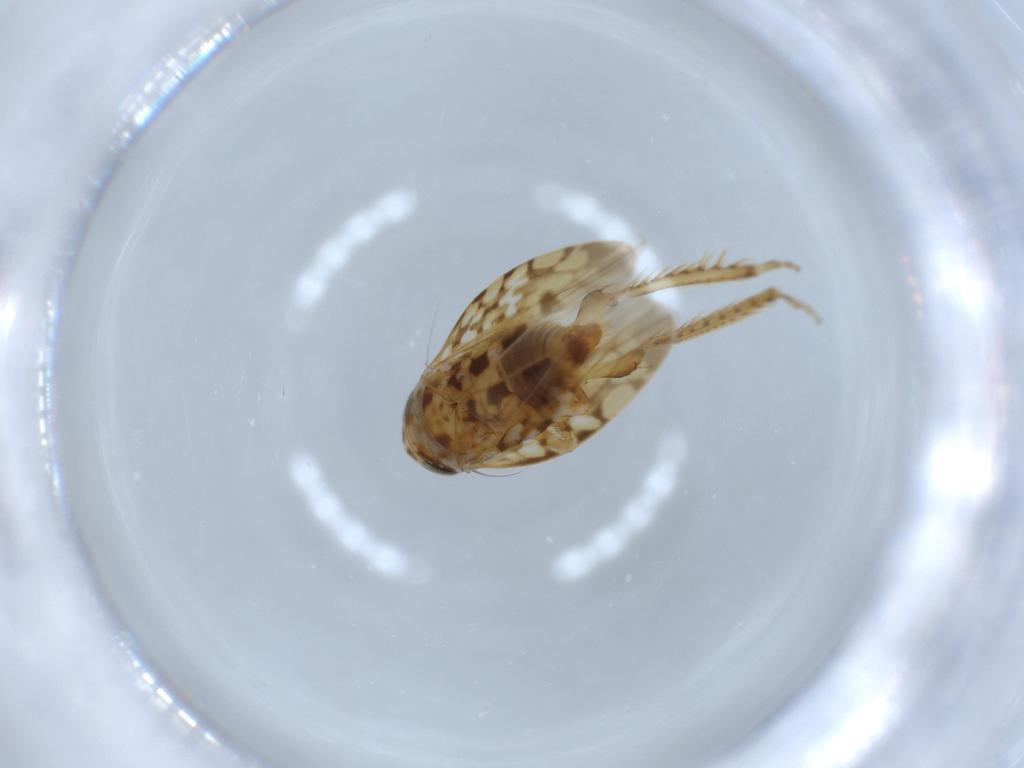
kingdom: Animalia
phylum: Arthropoda
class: Insecta
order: Hemiptera
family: Cicadellidae
